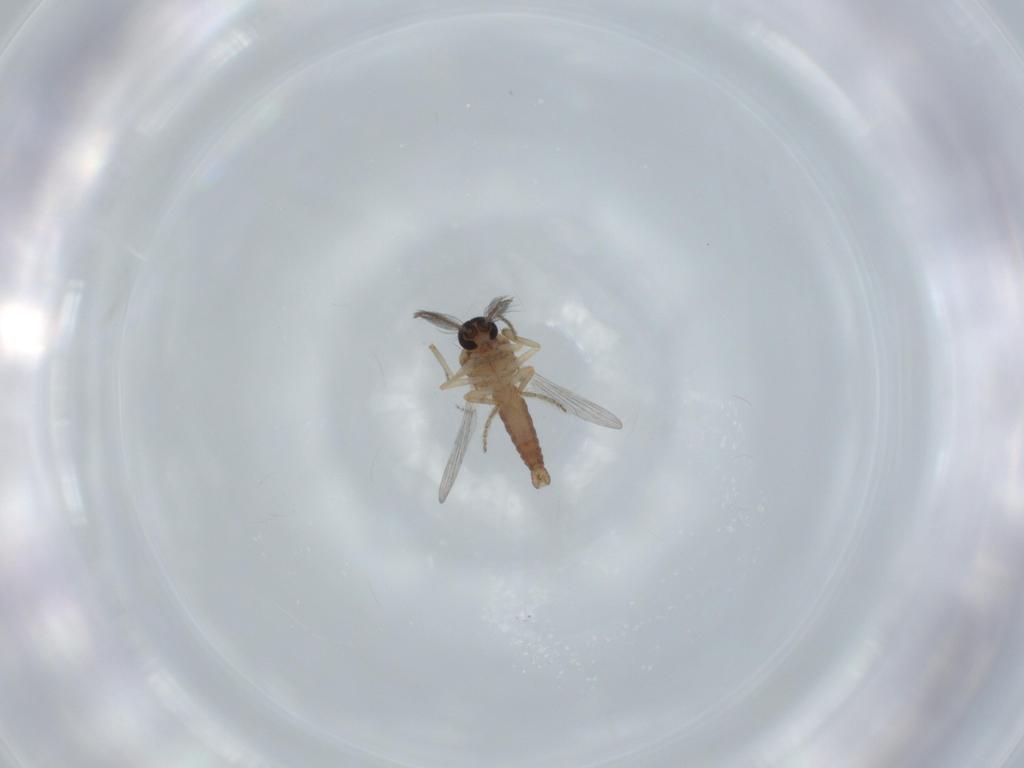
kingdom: Animalia
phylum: Arthropoda
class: Insecta
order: Diptera
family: Ceratopogonidae
